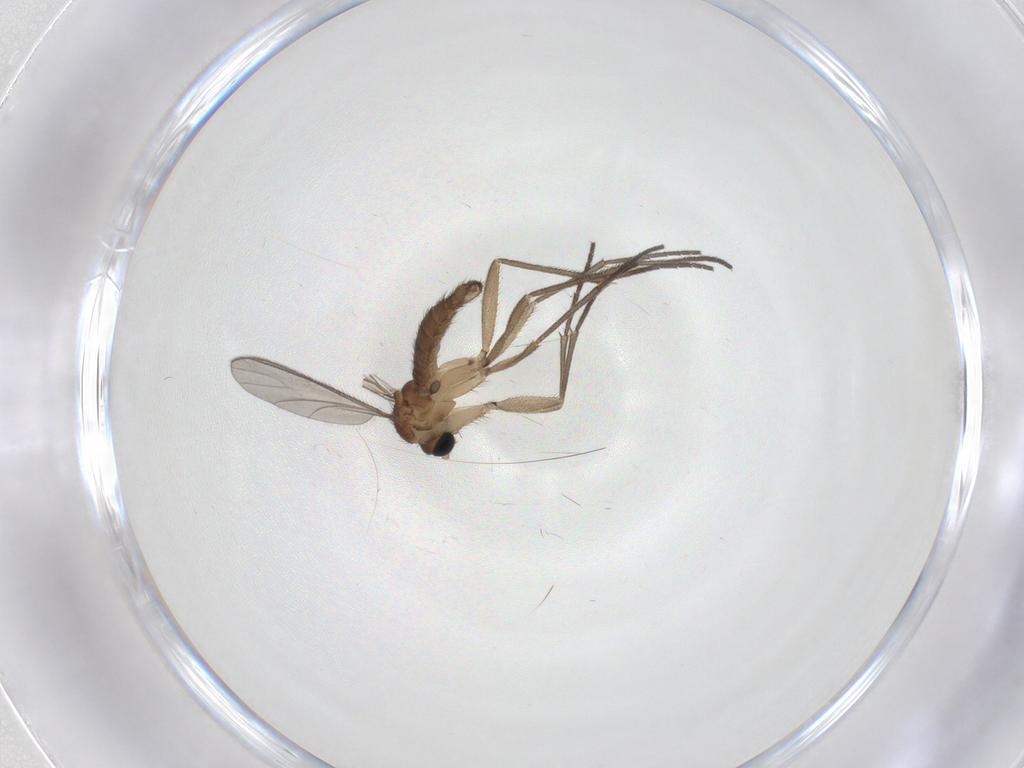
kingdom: Animalia
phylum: Arthropoda
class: Insecta
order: Diptera
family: Sciaridae
